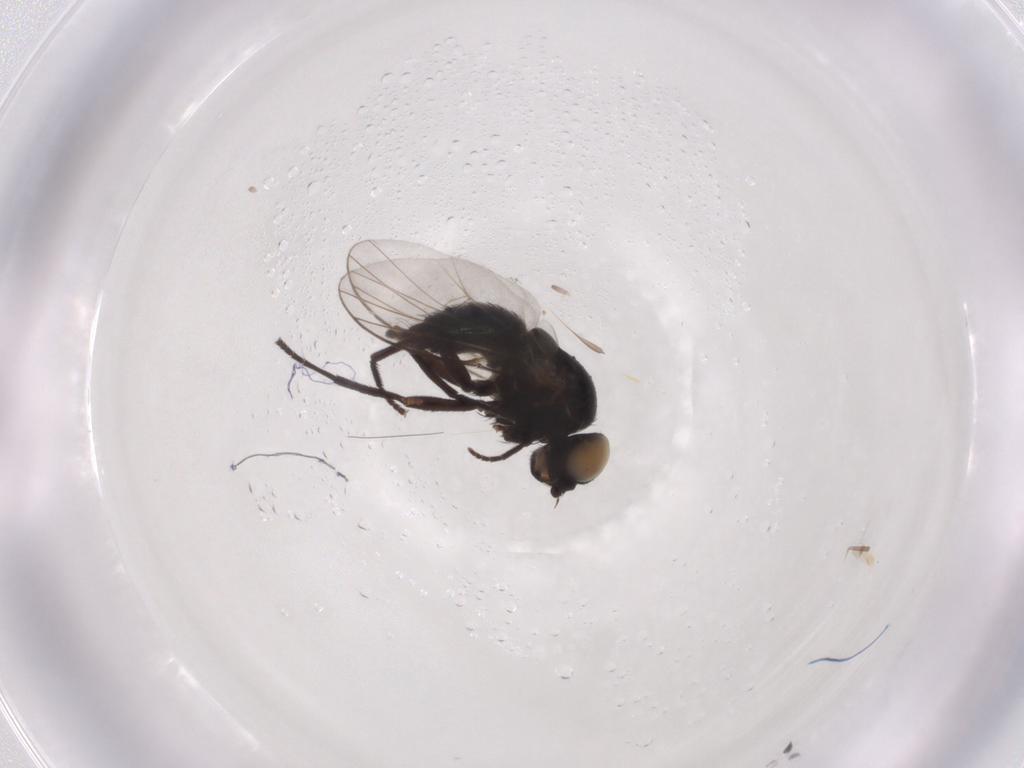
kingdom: Animalia
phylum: Arthropoda
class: Insecta
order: Diptera
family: Agromyzidae
